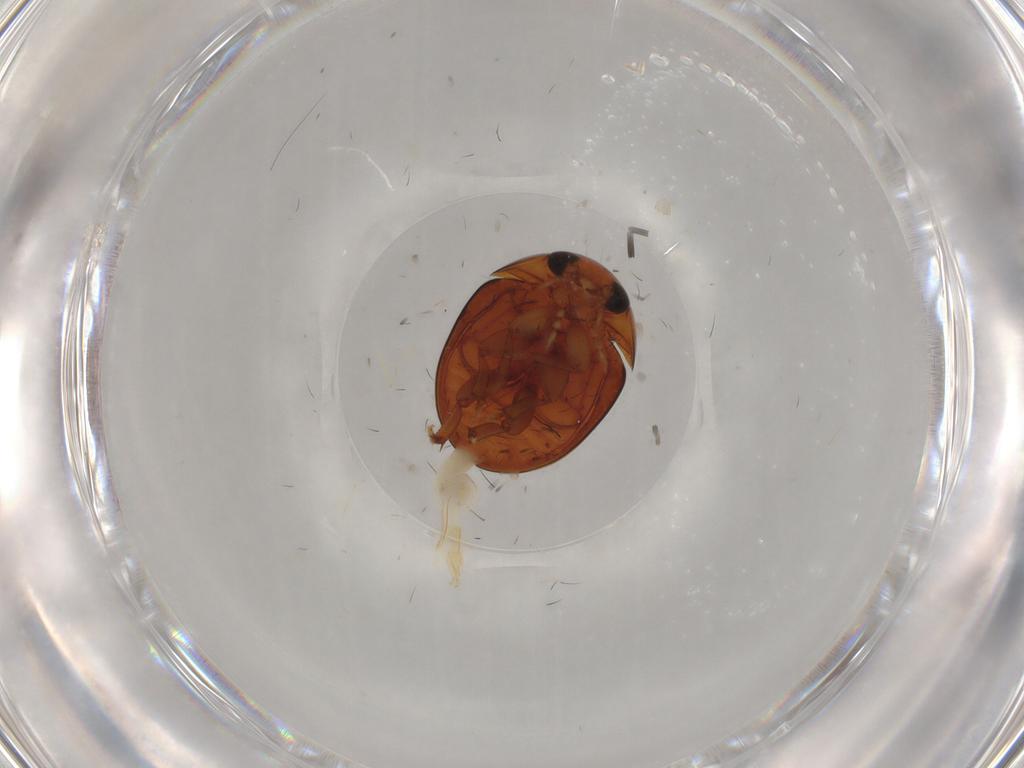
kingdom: Animalia
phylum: Arthropoda
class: Insecta
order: Coleoptera
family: Phalacridae
